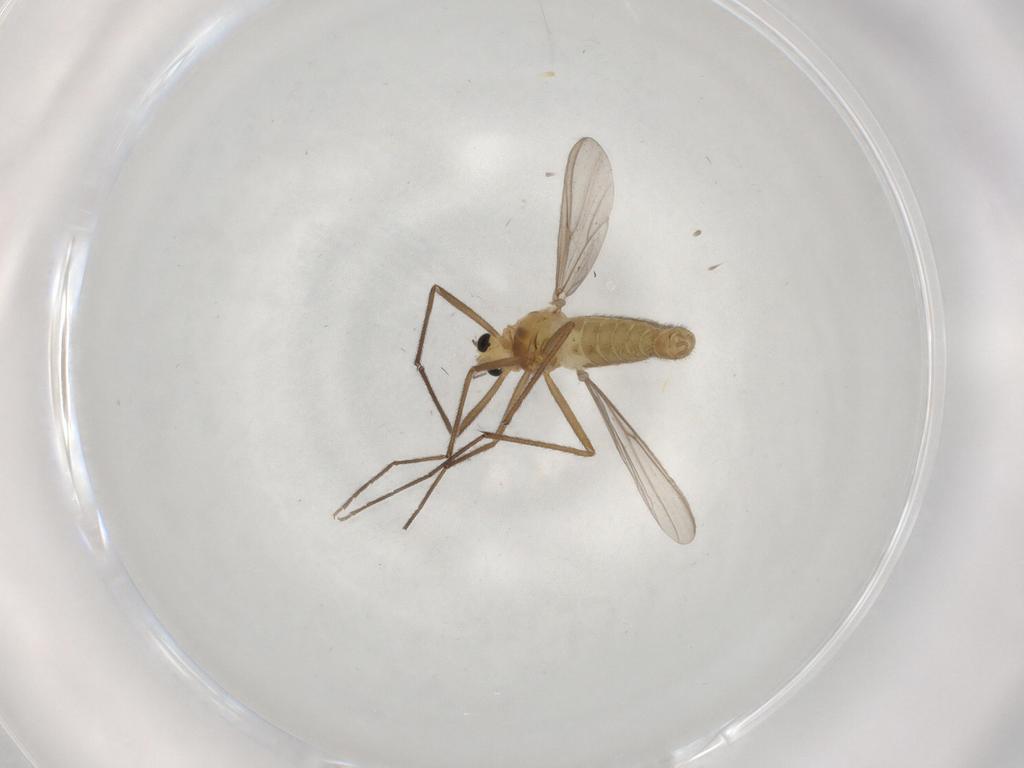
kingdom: Animalia
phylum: Arthropoda
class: Insecta
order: Diptera
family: Chironomidae
